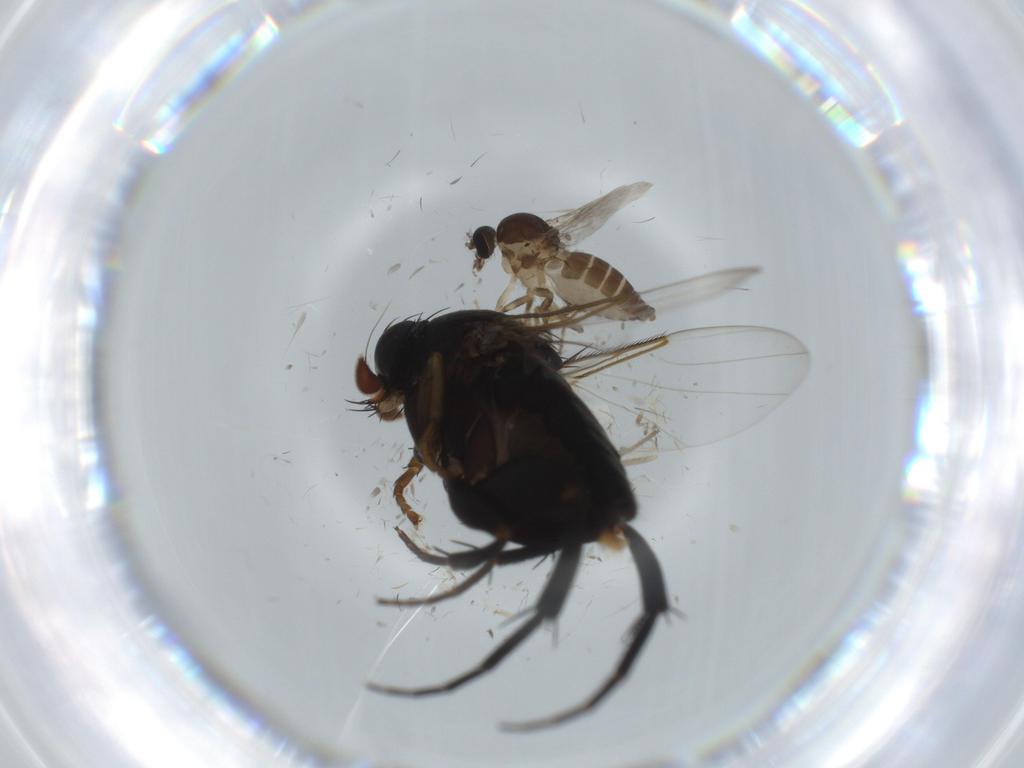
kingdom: Animalia
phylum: Arthropoda
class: Insecta
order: Diptera
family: Phoridae
